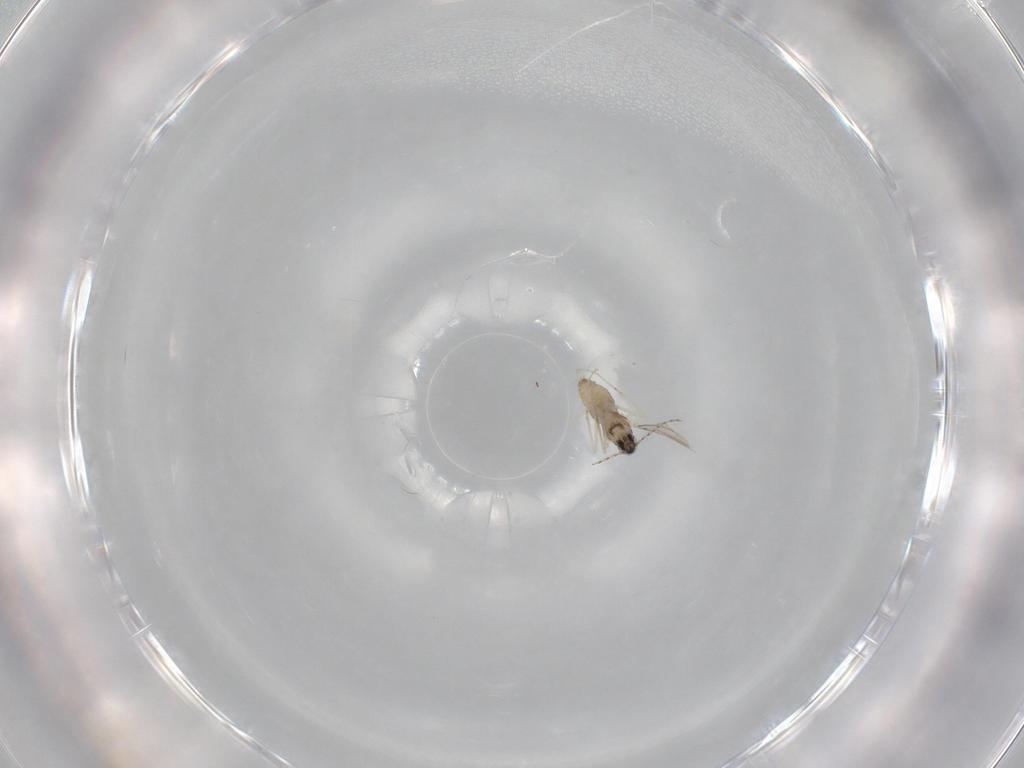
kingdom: Animalia
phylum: Arthropoda
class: Insecta
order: Diptera
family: Cecidomyiidae
